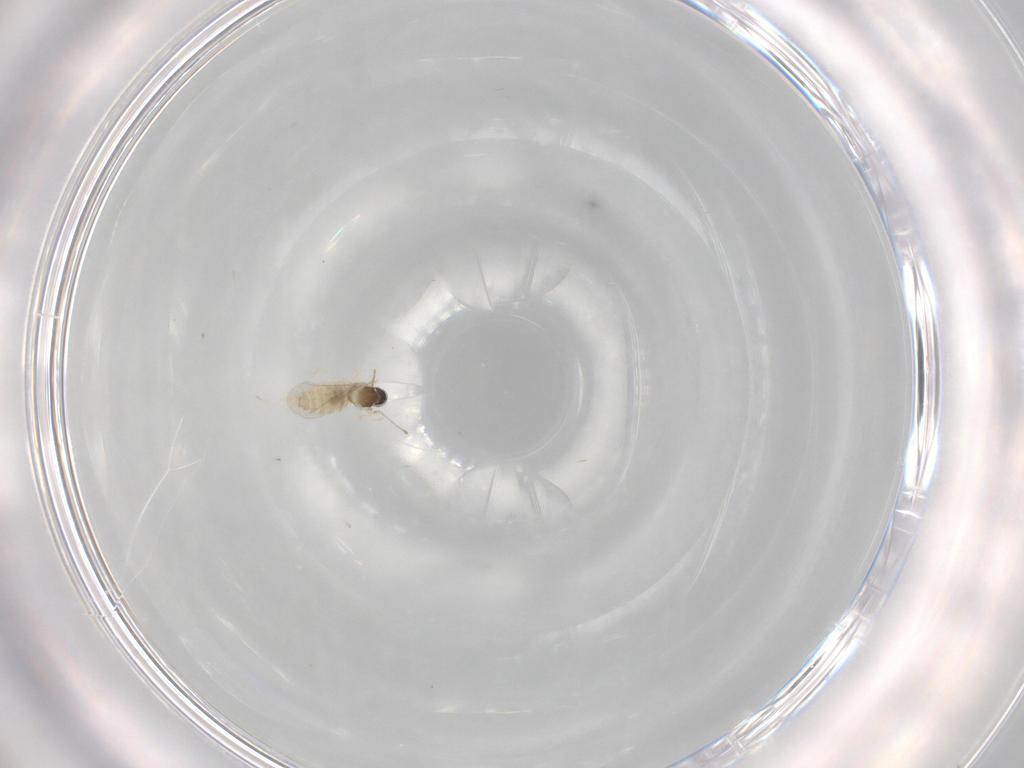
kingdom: Animalia
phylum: Arthropoda
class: Insecta
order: Diptera
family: Cecidomyiidae
